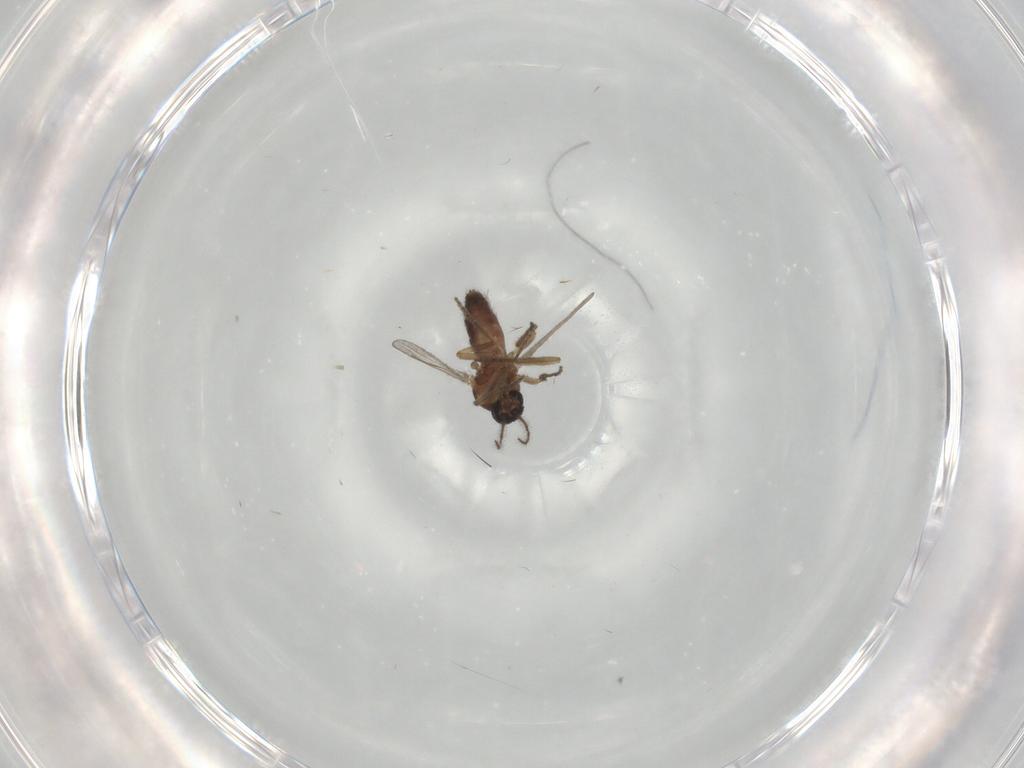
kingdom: Animalia
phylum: Arthropoda
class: Insecta
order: Diptera
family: Ceratopogonidae
